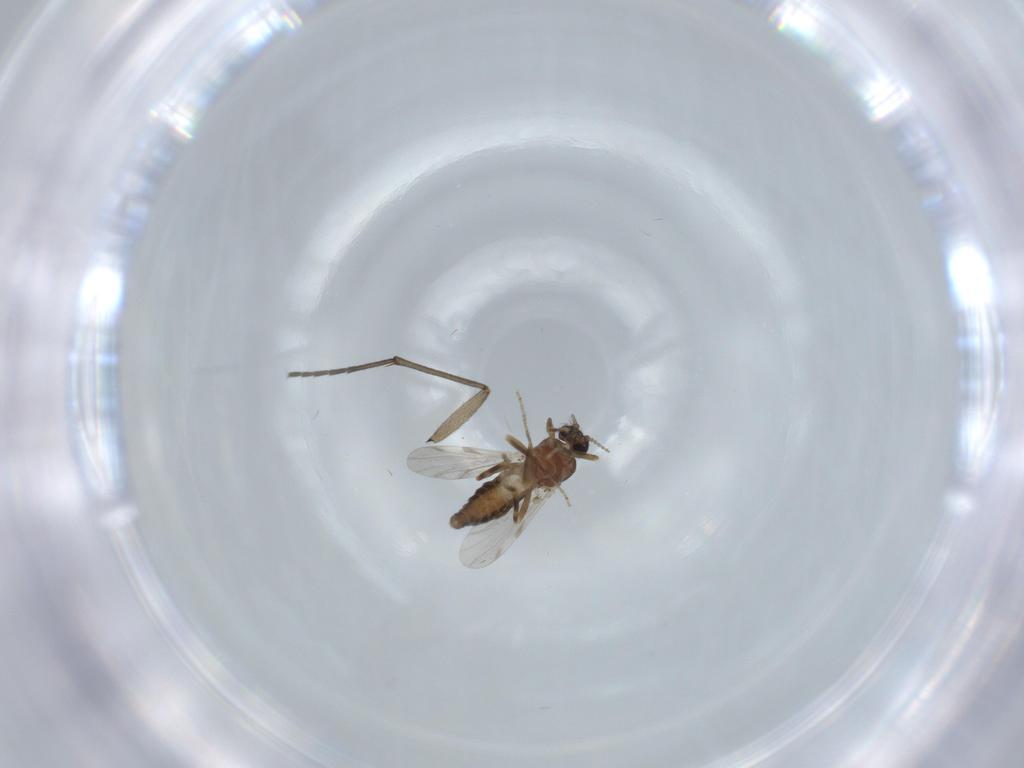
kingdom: Animalia
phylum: Arthropoda
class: Insecta
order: Diptera
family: Ceratopogonidae
